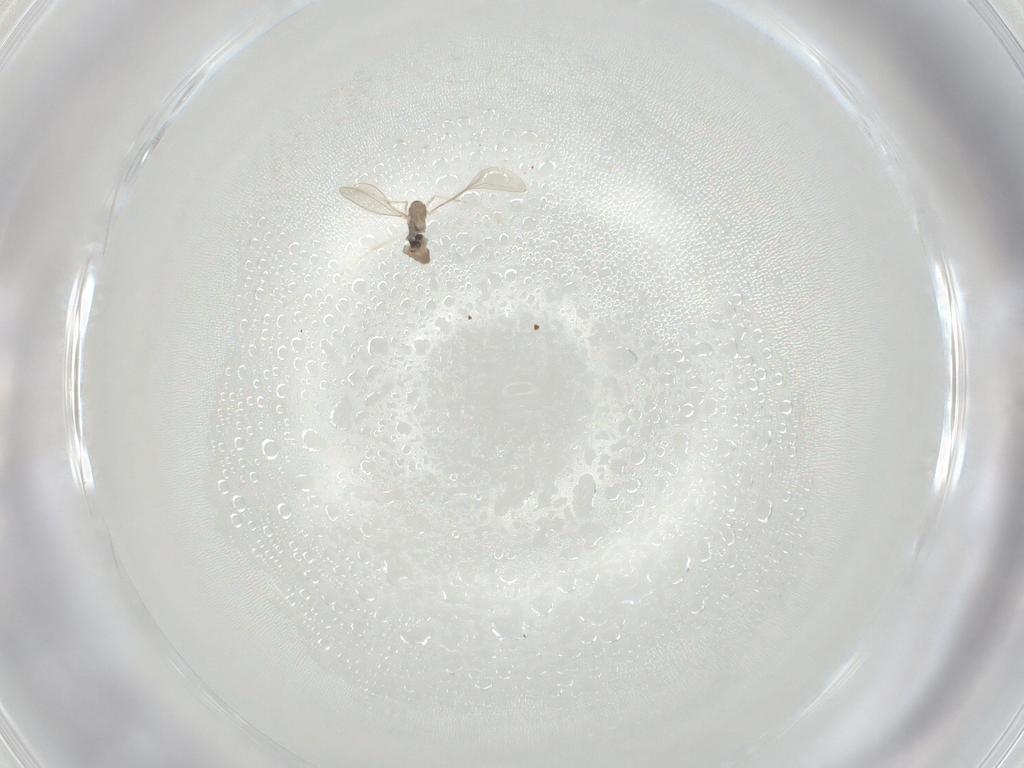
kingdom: Animalia
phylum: Arthropoda
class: Insecta
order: Diptera
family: Cecidomyiidae
